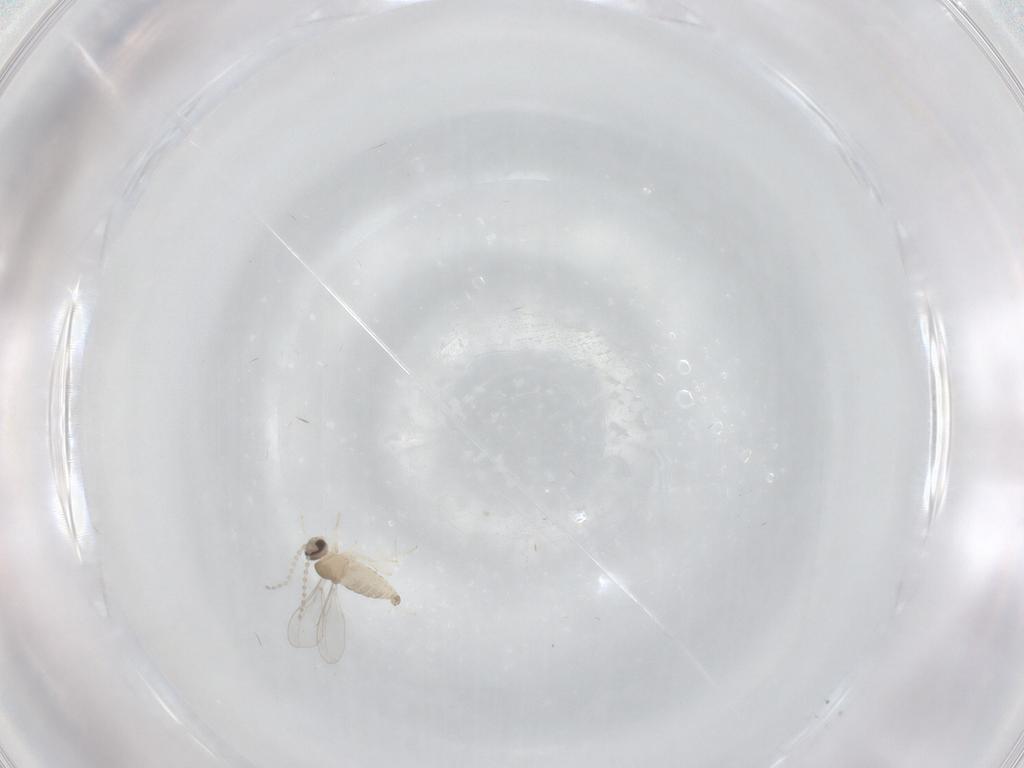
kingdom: Animalia
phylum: Arthropoda
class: Insecta
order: Diptera
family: Cecidomyiidae
